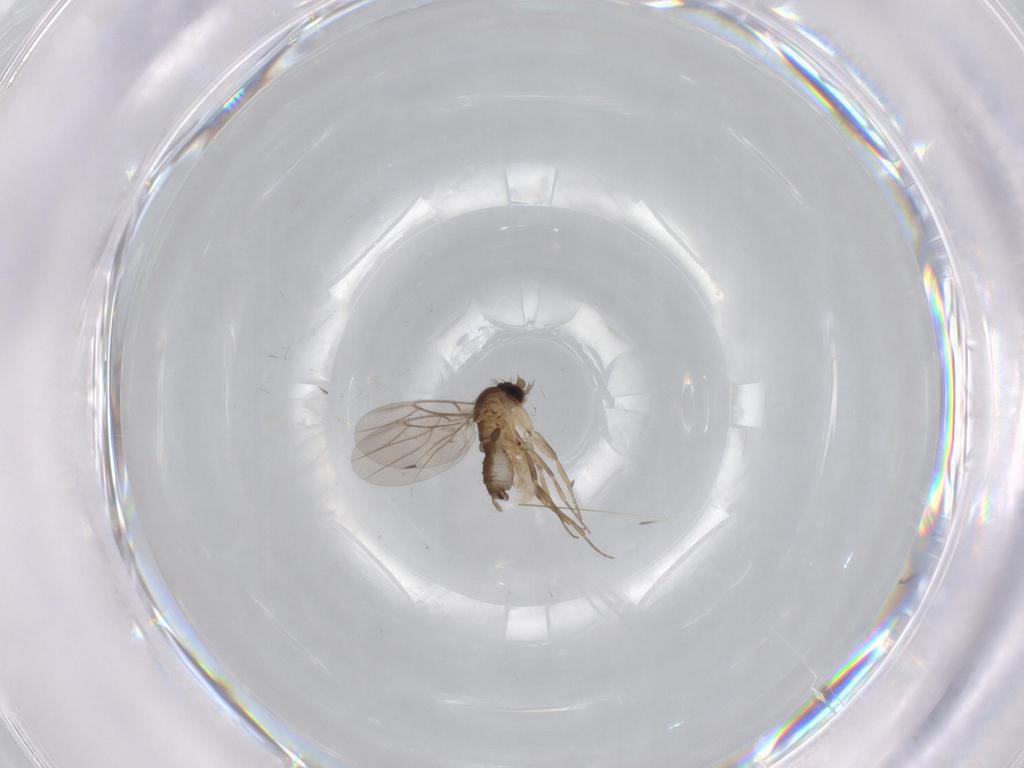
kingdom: Animalia
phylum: Arthropoda
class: Insecta
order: Diptera
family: Phoridae
